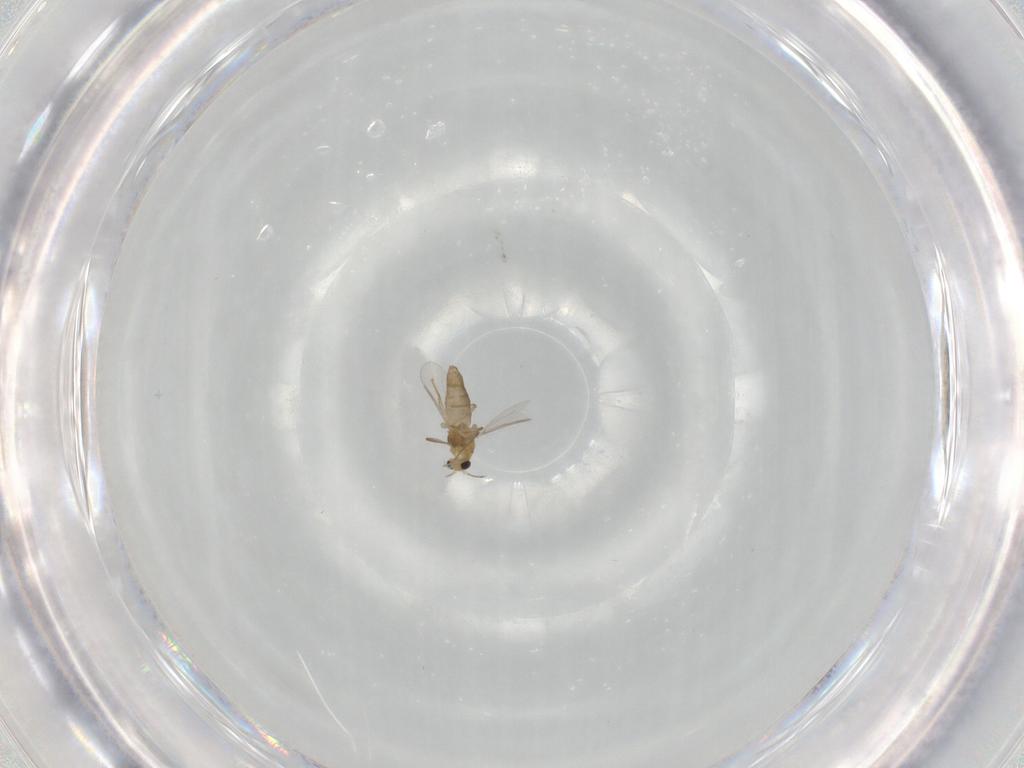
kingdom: Animalia
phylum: Arthropoda
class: Insecta
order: Diptera
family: Chironomidae
